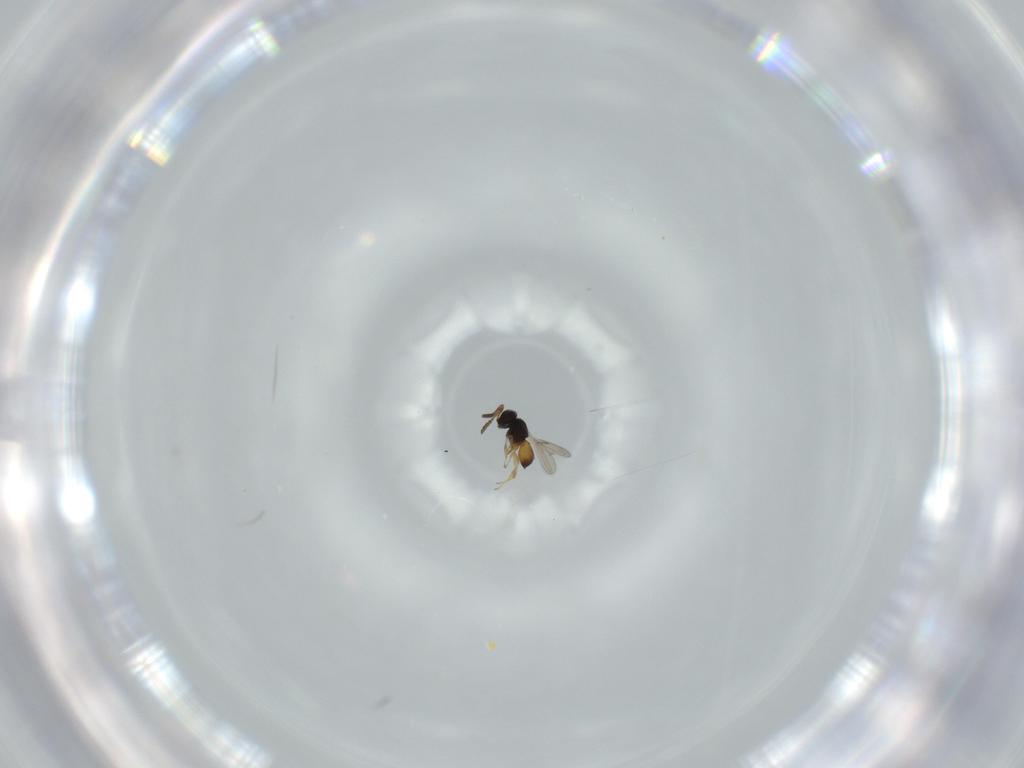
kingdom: Animalia
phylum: Arthropoda
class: Insecta
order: Hymenoptera
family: Scelionidae
